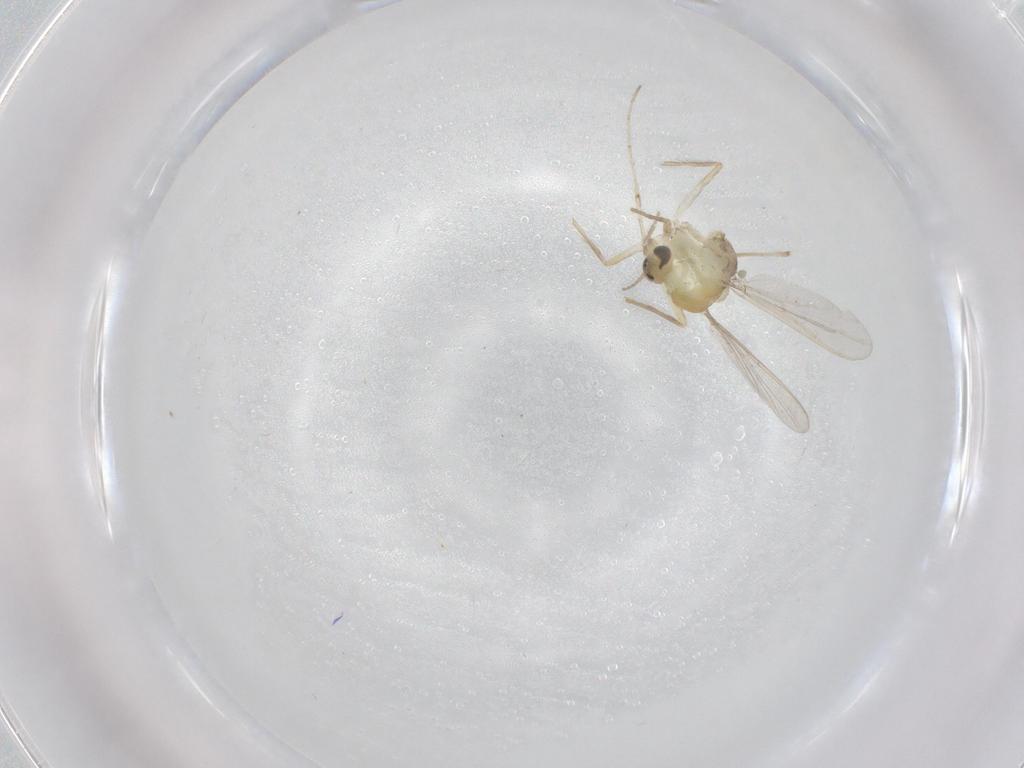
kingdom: Animalia
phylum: Arthropoda
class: Insecta
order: Diptera
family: Chironomidae
